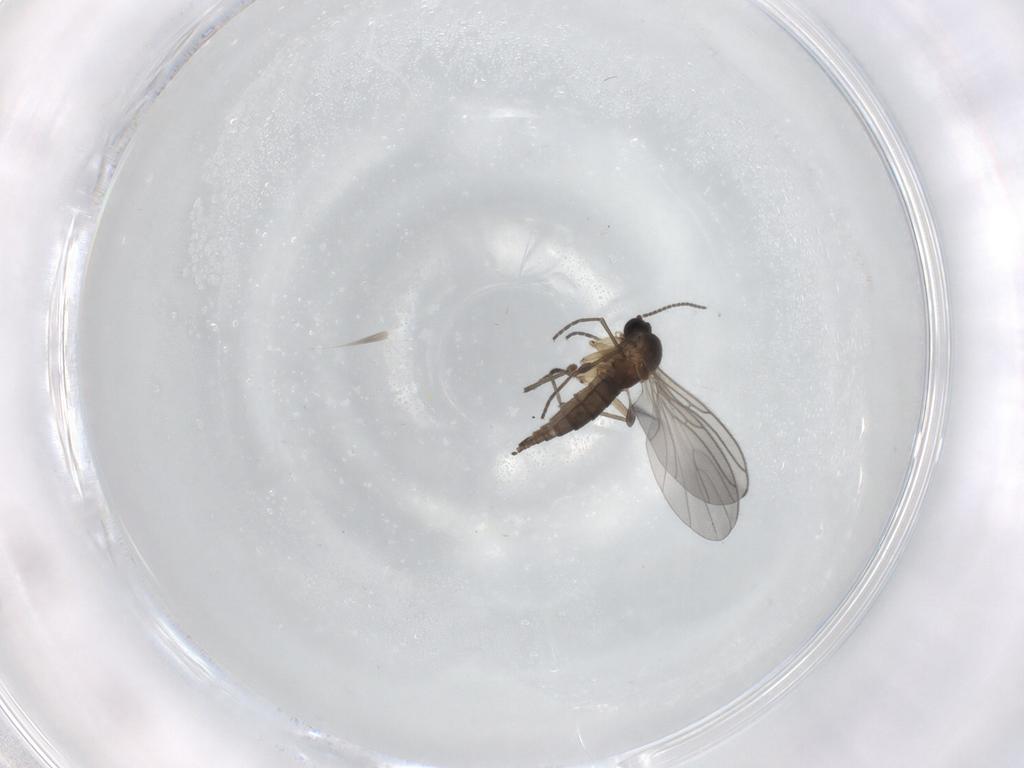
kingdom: Animalia
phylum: Arthropoda
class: Insecta
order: Diptera
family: Sciaridae
